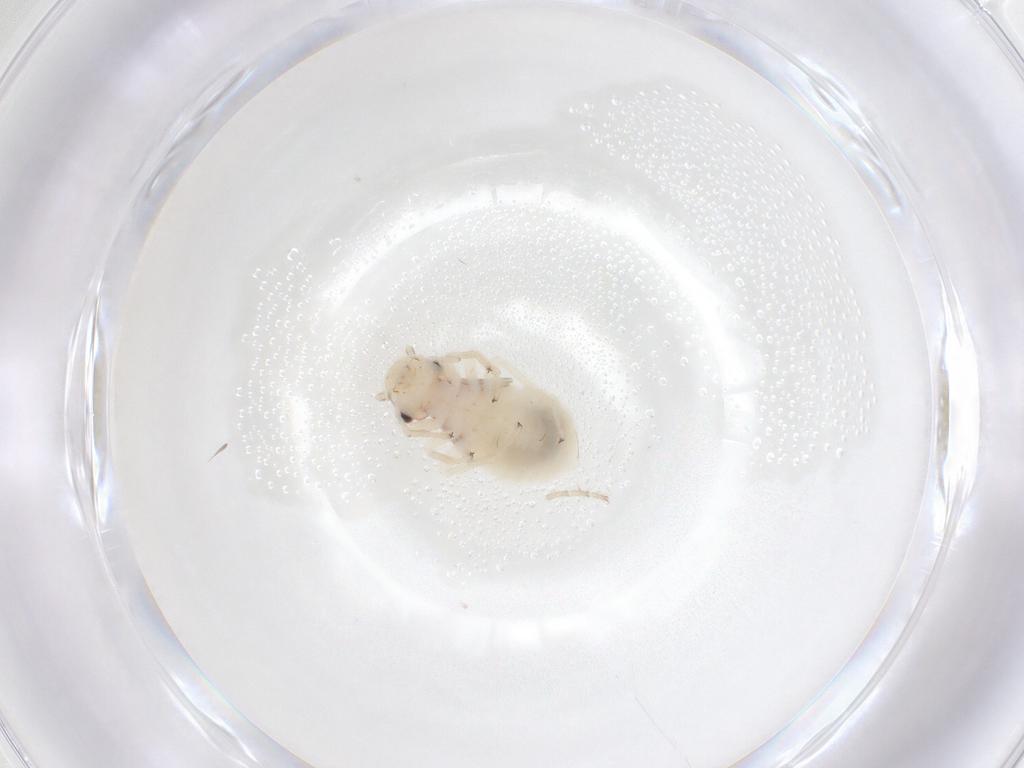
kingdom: Animalia
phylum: Arthropoda
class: Insecta
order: Psocodea
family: Amphipsocidae
